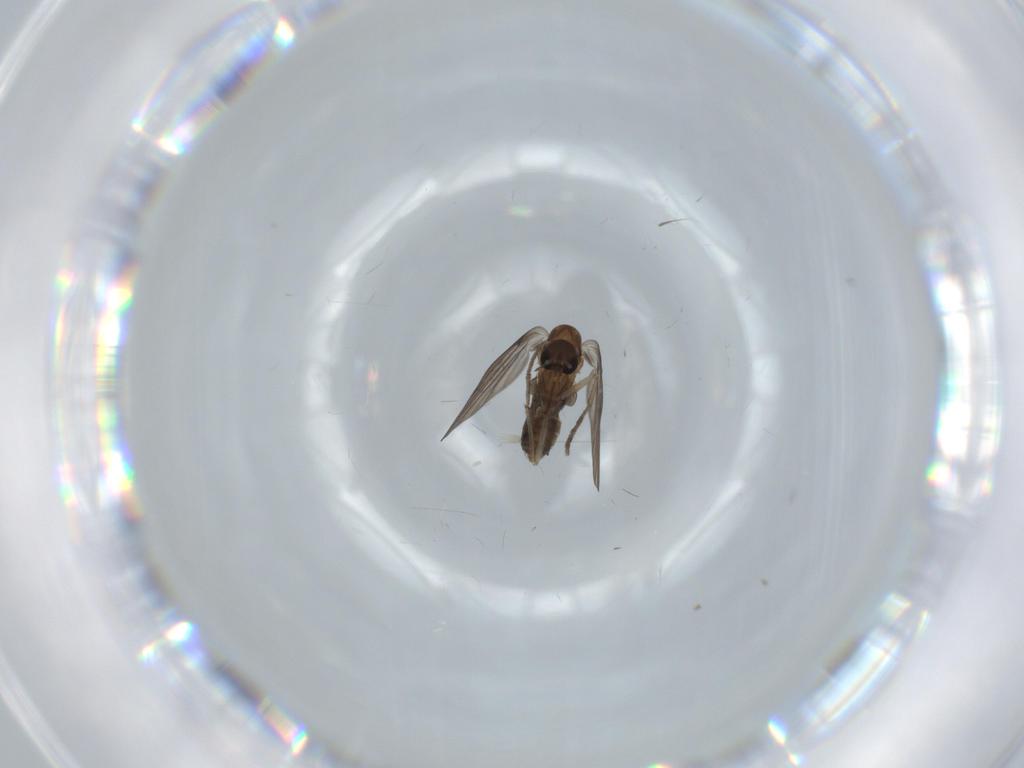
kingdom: Animalia
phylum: Arthropoda
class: Insecta
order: Diptera
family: Psychodidae
